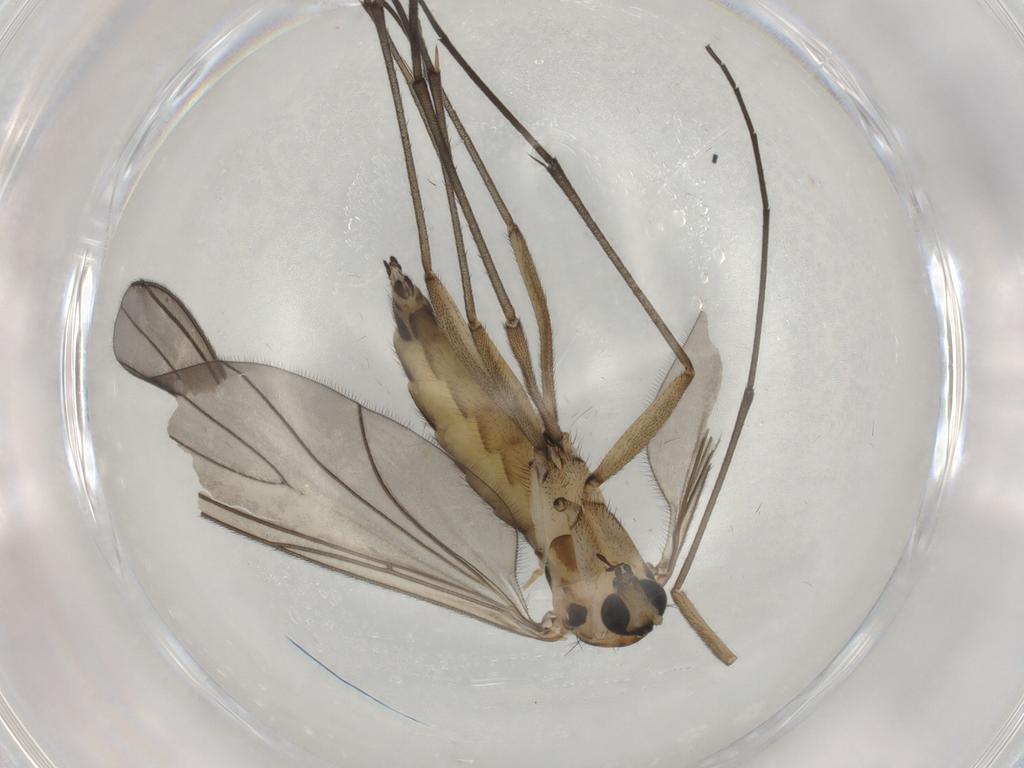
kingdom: Animalia
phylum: Arthropoda
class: Insecta
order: Diptera
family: Sciaridae
